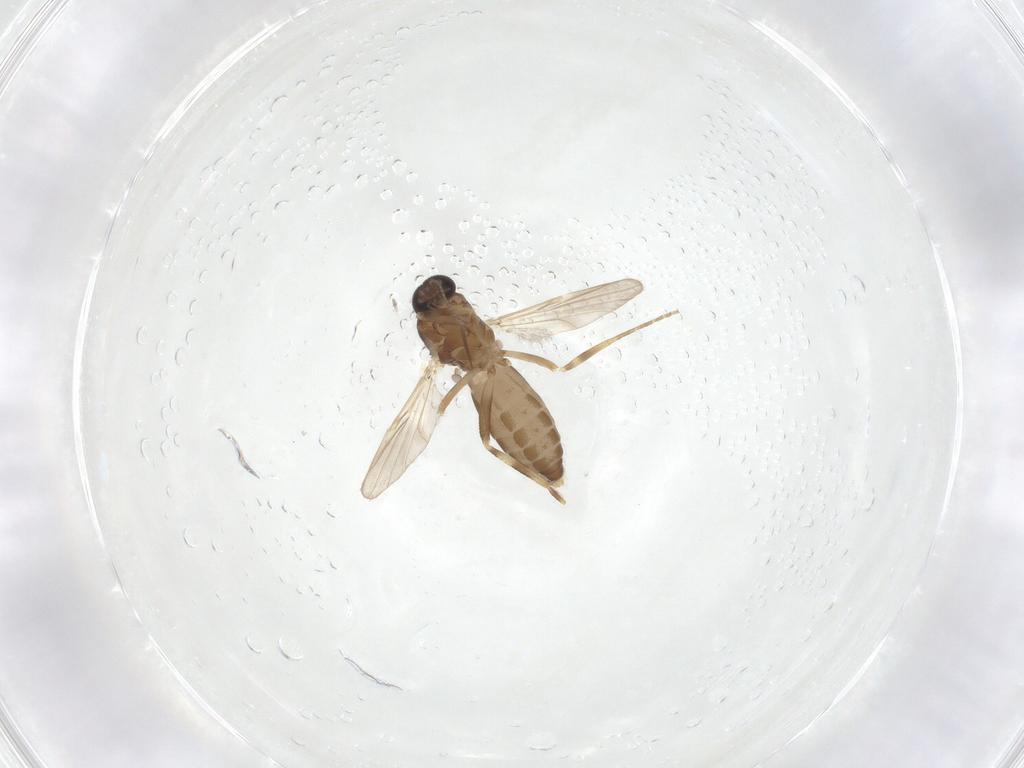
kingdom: Animalia
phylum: Arthropoda
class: Insecta
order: Diptera
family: Ceratopogonidae
